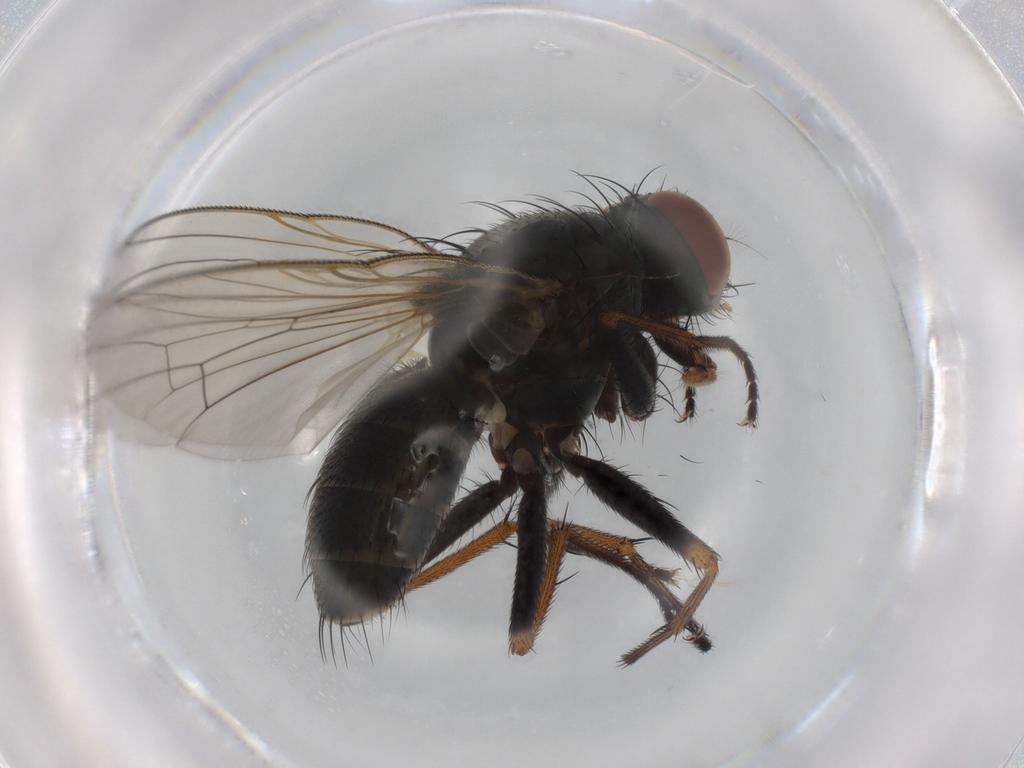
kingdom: Animalia
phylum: Arthropoda
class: Insecta
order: Diptera
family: Muscidae
